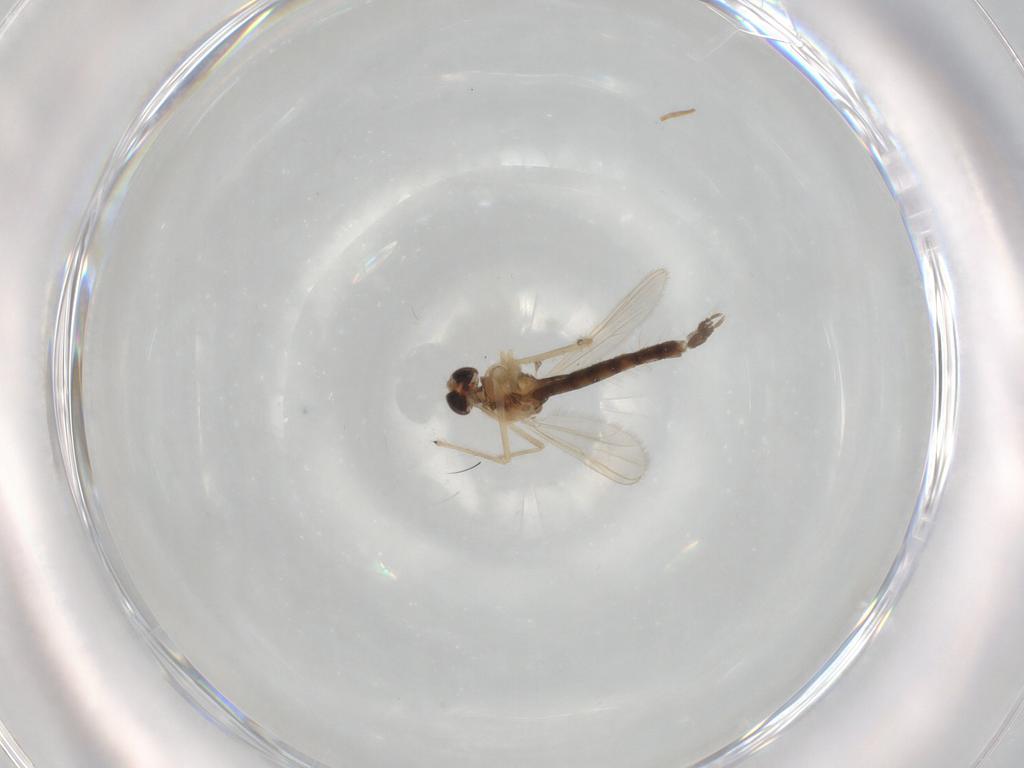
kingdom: Animalia
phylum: Arthropoda
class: Insecta
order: Diptera
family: Chironomidae
